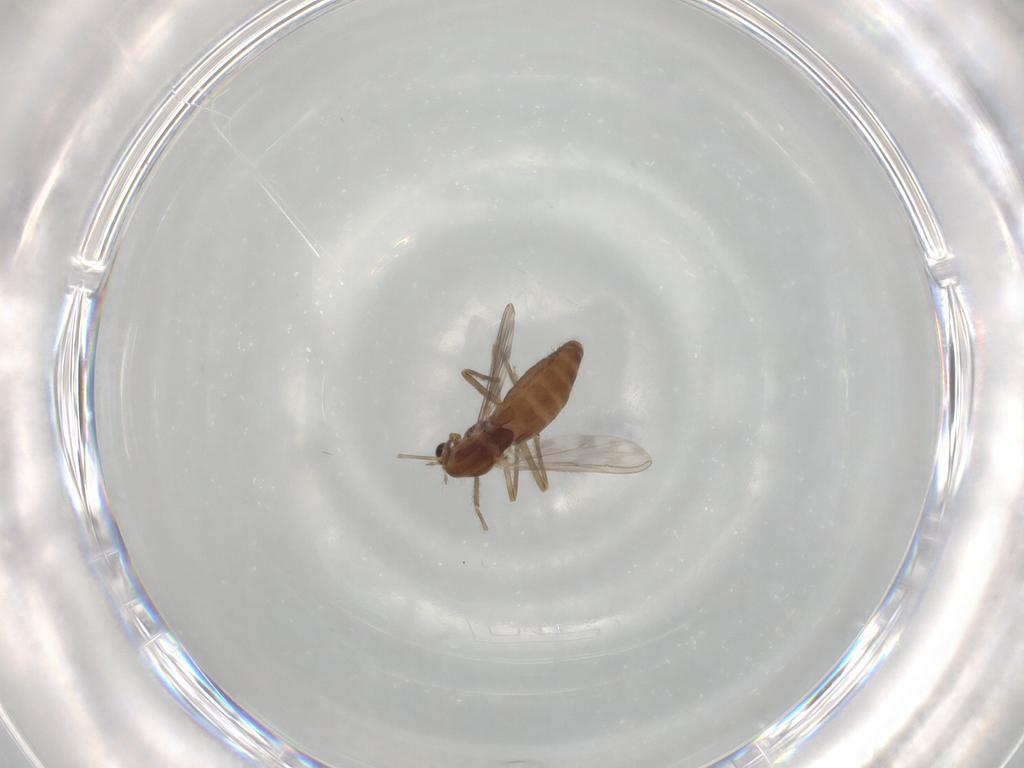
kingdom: Animalia
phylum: Arthropoda
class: Insecta
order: Diptera
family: Chironomidae
